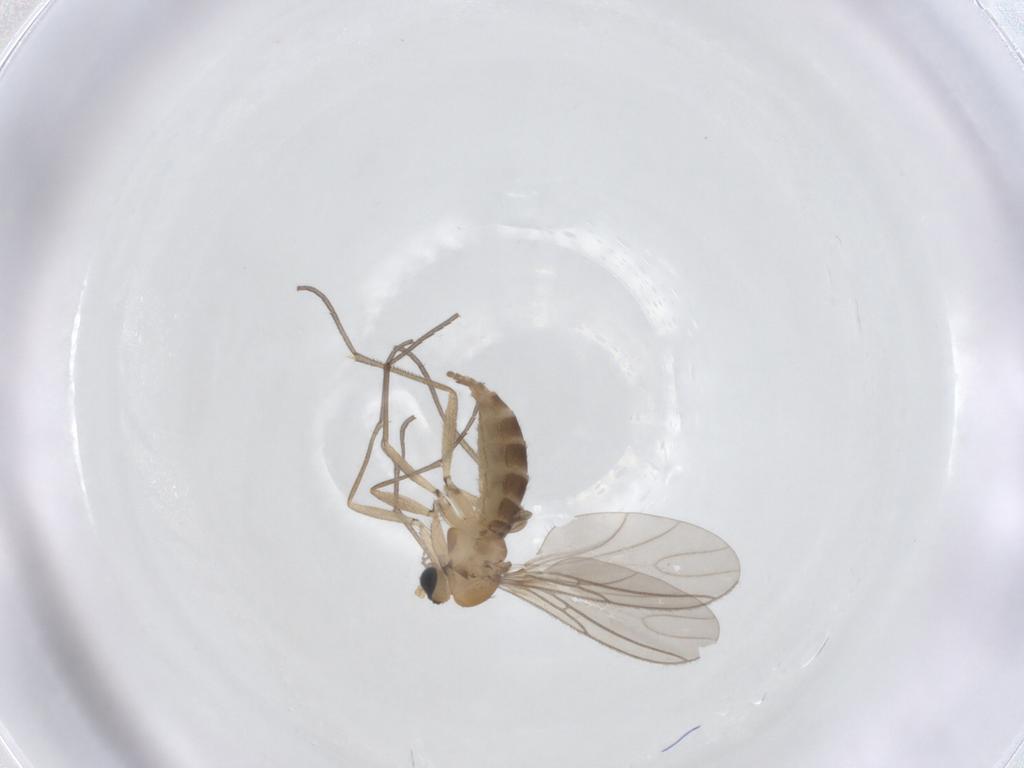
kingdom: Animalia
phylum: Arthropoda
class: Insecta
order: Diptera
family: Sciaridae
